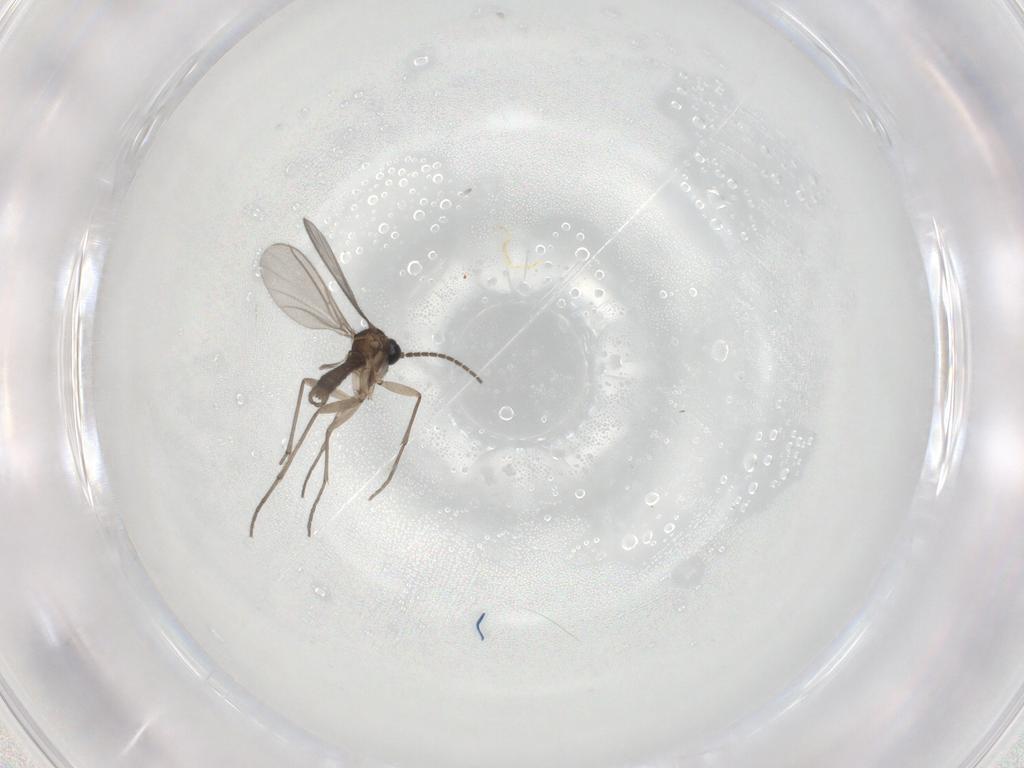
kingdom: Animalia
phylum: Arthropoda
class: Insecta
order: Diptera
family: Sciaridae
